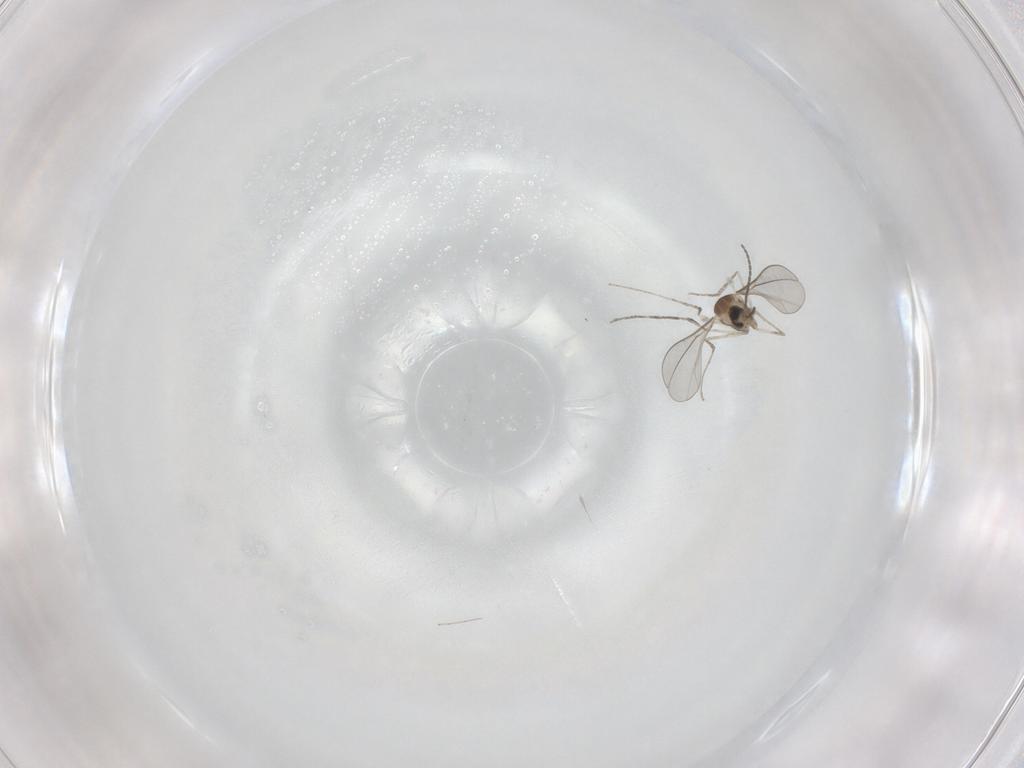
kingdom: Animalia
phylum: Arthropoda
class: Insecta
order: Diptera
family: Cecidomyiidae
